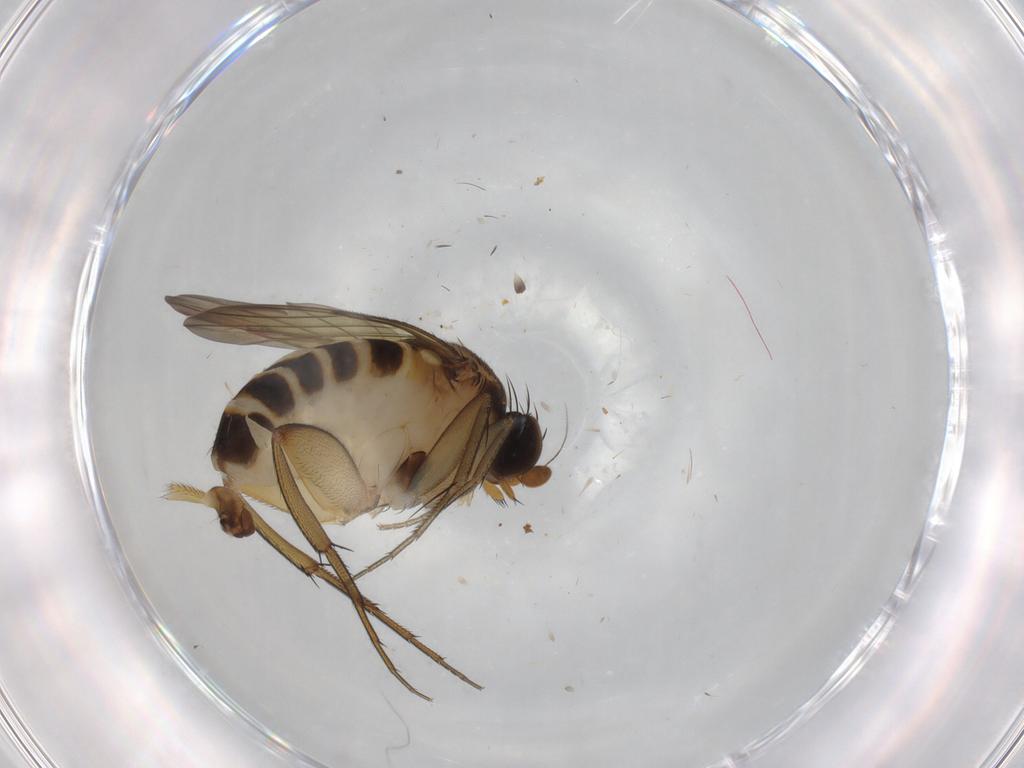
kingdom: Animalia
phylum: Arthropoda
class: Insecta
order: Diptera
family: Phoridae
